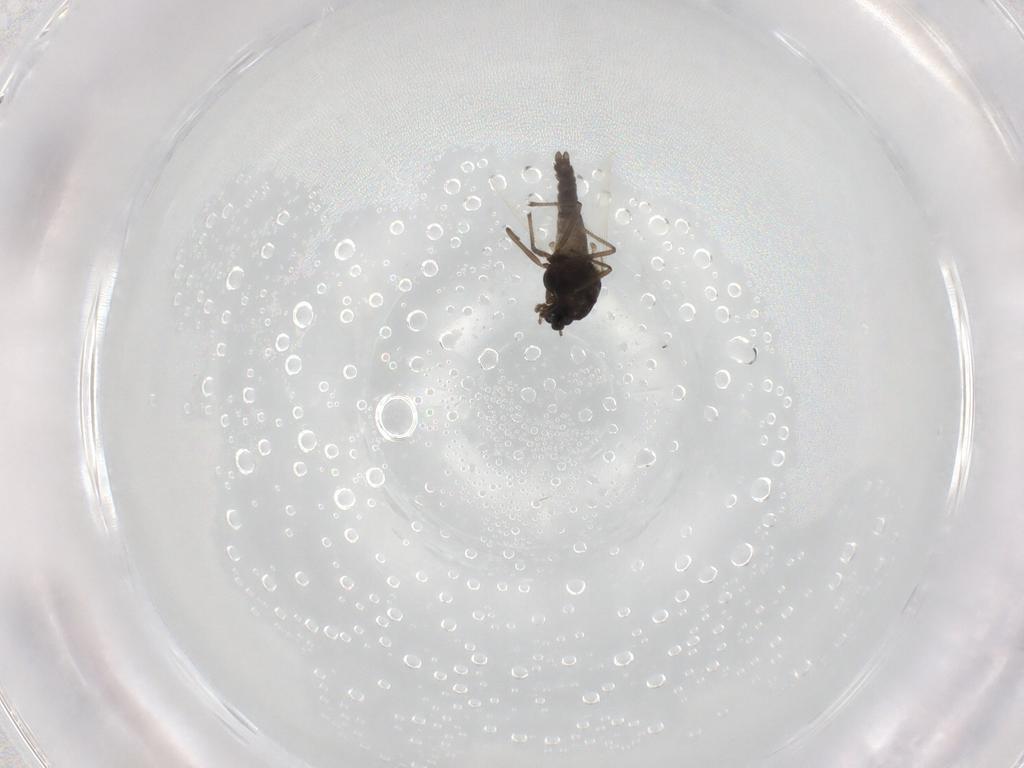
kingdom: Animalia
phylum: Arthropoda
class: Insecta
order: Diptera
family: Chironomidae
